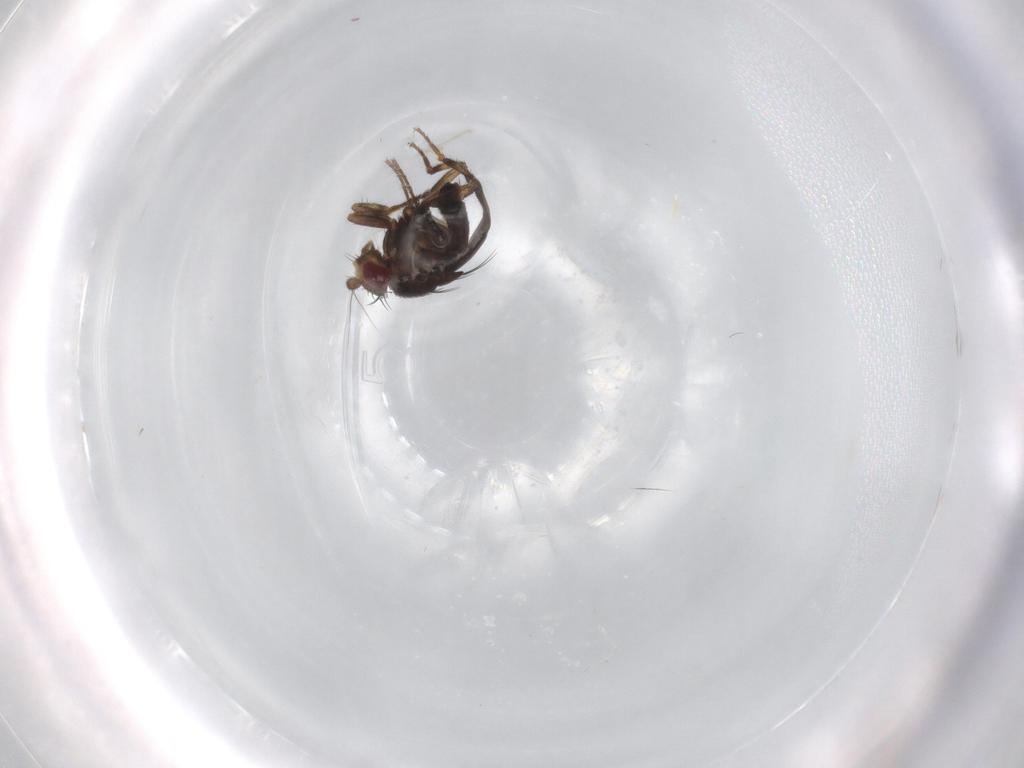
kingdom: Animalia
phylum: Arthropoda
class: Insecta
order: Diptera
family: Sphaeroceridae
